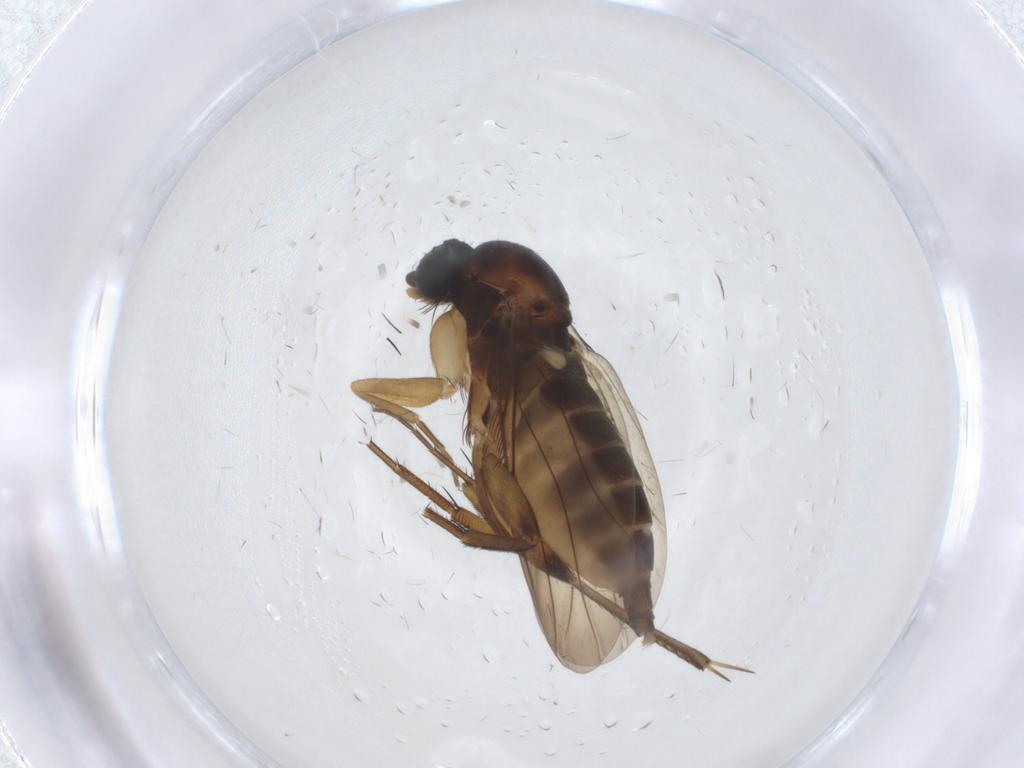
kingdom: Animalia
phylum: Arthropoda
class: Insecta
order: Diptera
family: Phoridae
